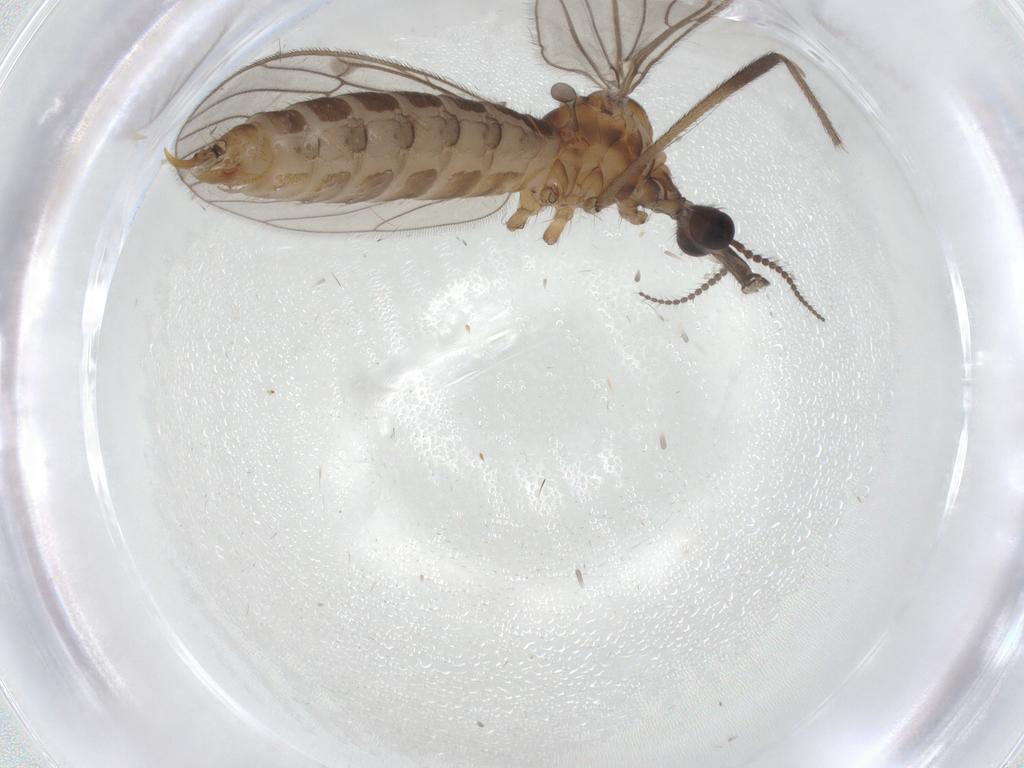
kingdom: Animalia
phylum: Arthropoda
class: Insecta
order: Diptera
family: Limoniidae
